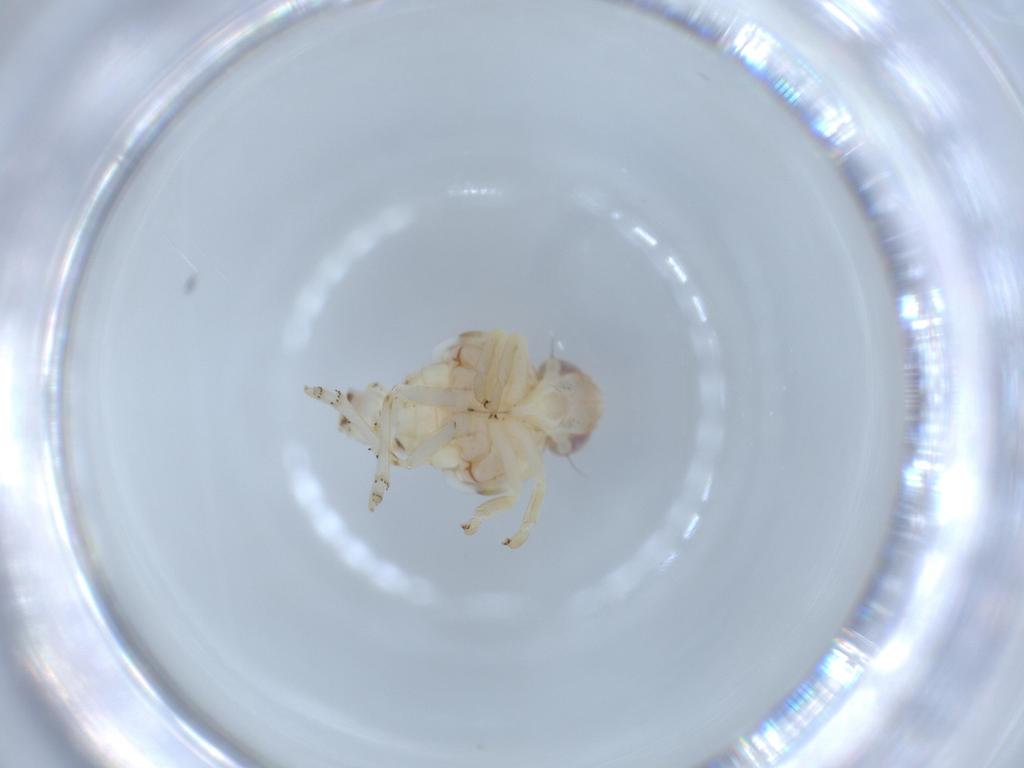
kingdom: Animalia
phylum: Arthropoda
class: Insecta
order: Hemiptera
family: Nogodinidae
